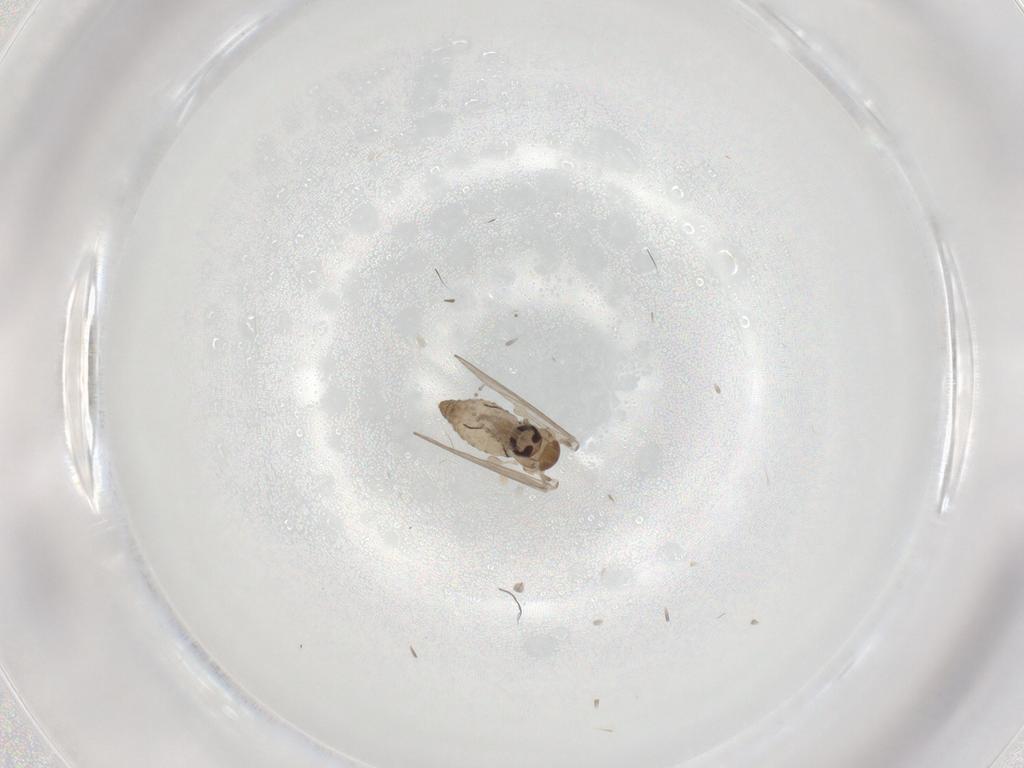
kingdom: Animalia
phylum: Arthropoda
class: Insecta
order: Diptera
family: Psychodidae
